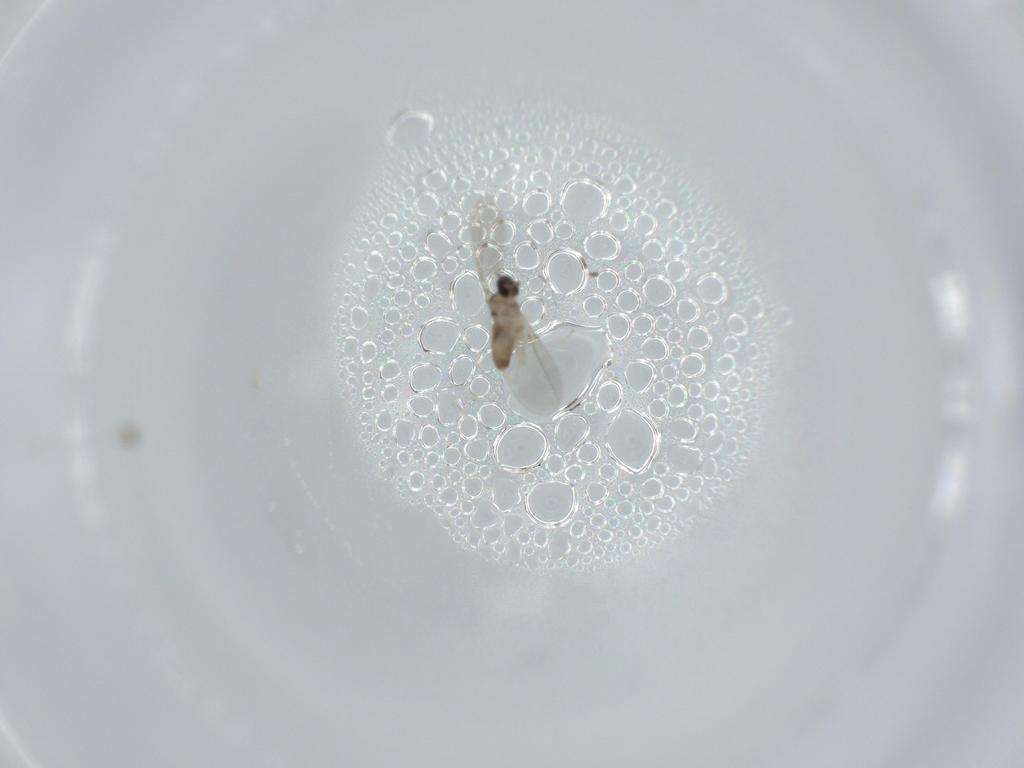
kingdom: Animalia
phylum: Arthropoda
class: Insecta
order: Diptera
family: Cecidomyiidae
